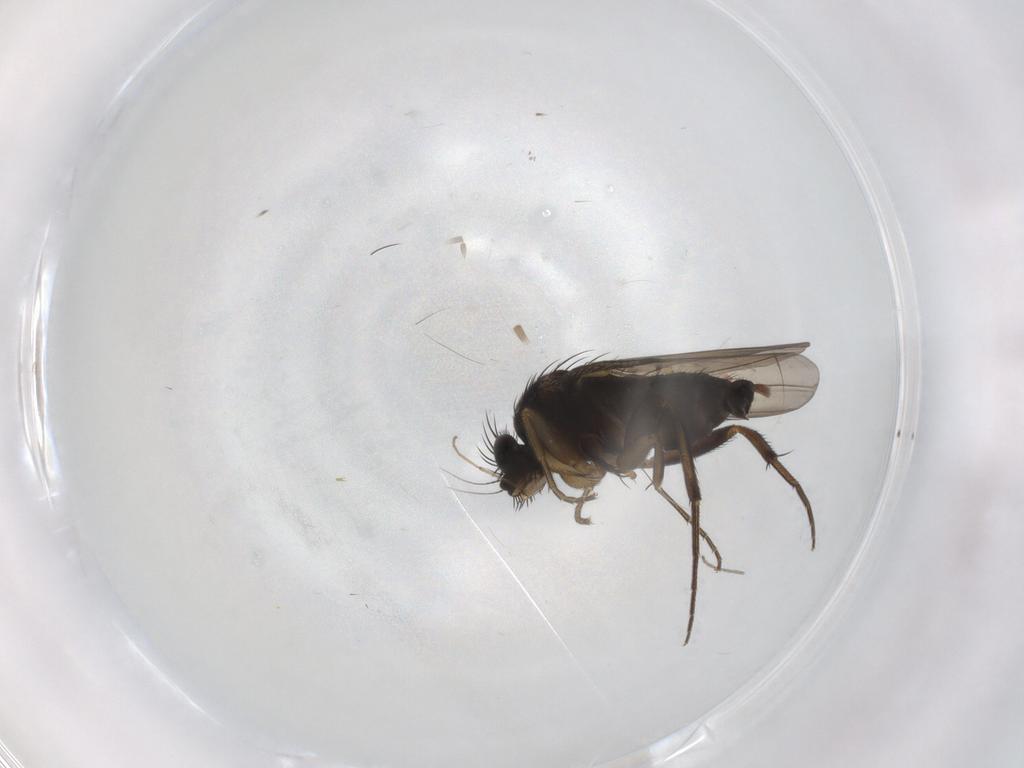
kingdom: Animalia
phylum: Arthropoda
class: Insecta
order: Diptera
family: Phoridae
